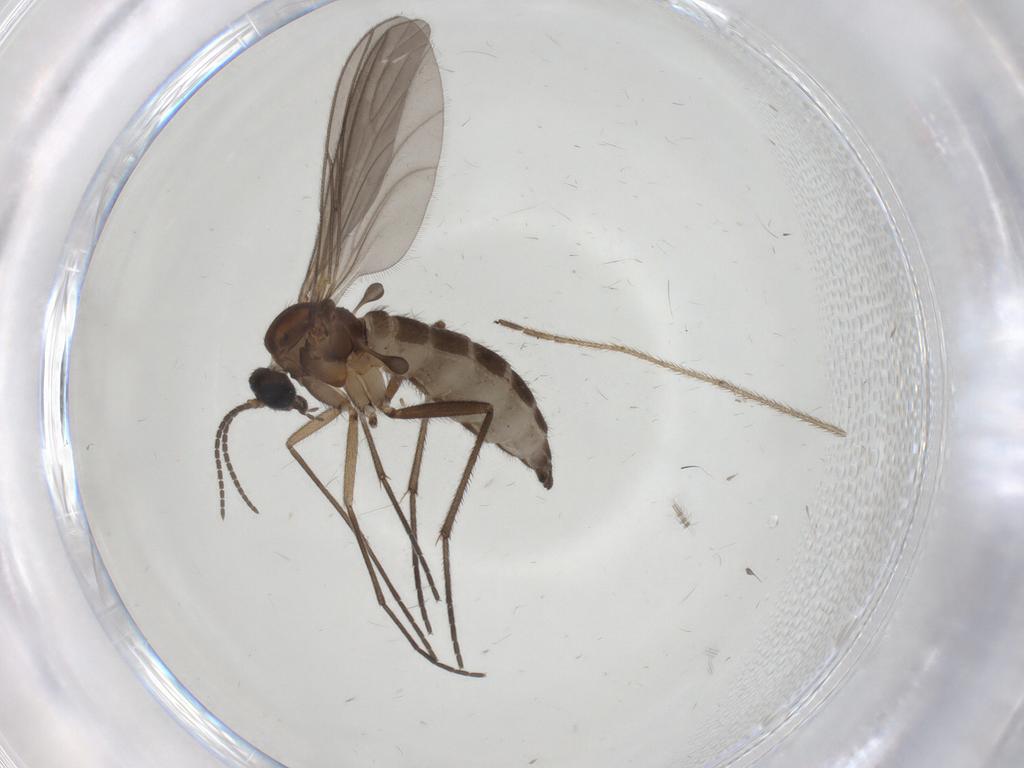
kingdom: Animalia
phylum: Arthropoda
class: Insecta
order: Diptera
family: Sciaridae
